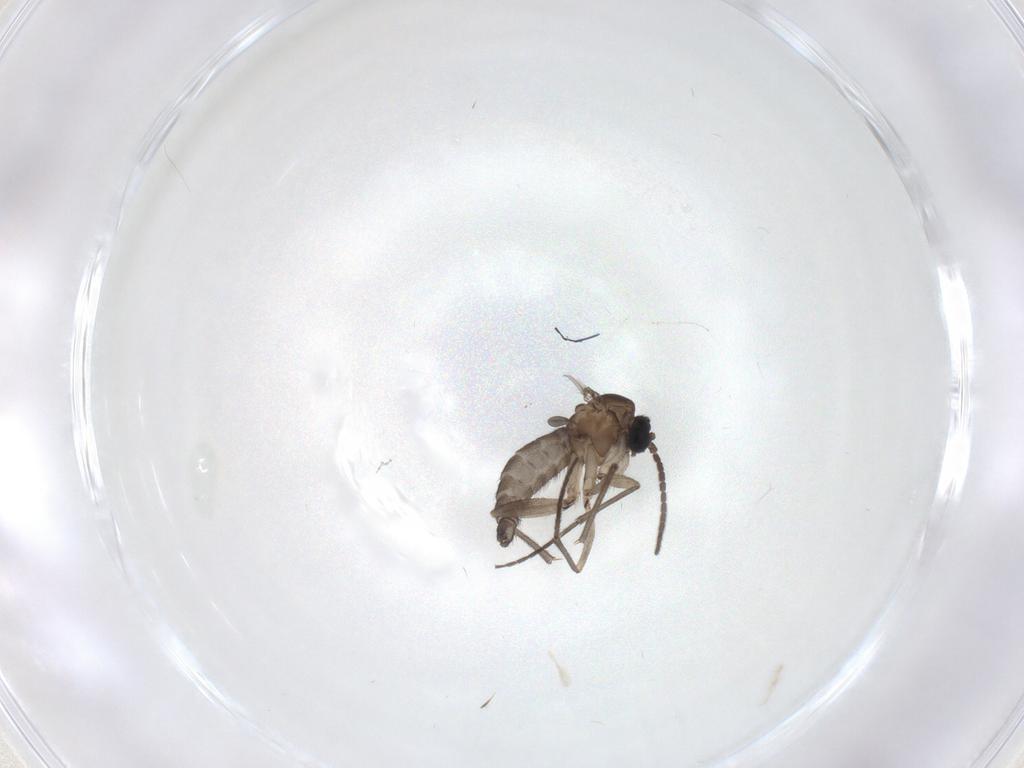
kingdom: Animalia
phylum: Arthropoda
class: Insecta
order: Diptera
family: Sciaridae
